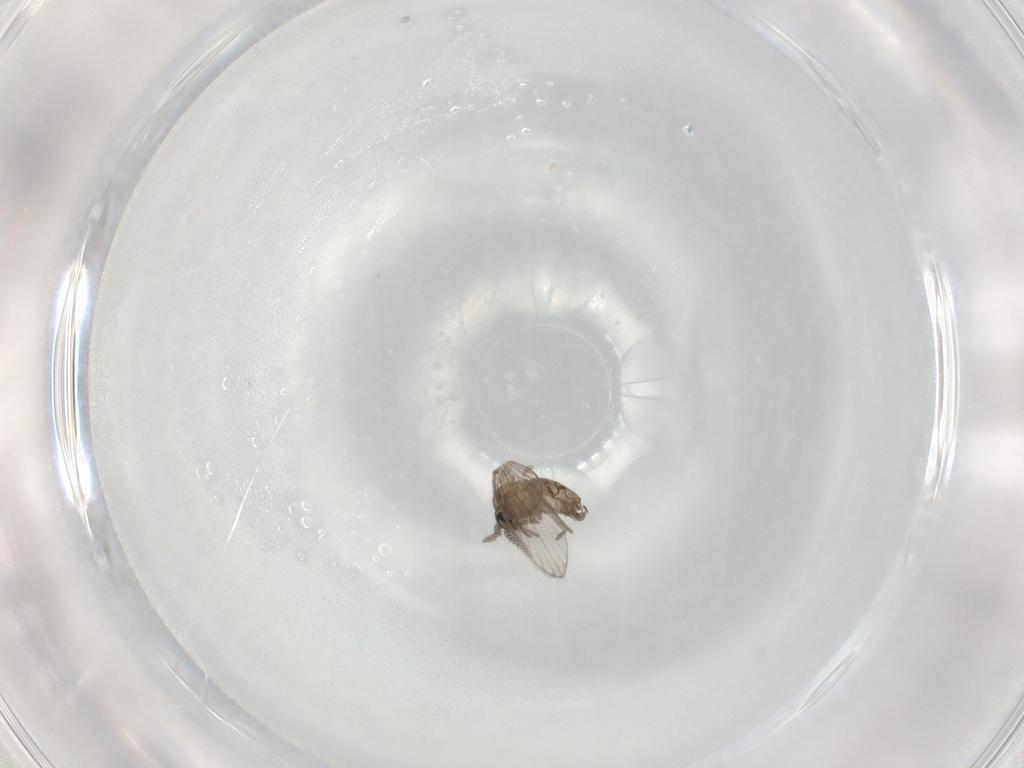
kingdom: Animalia
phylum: Arthropoda
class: Insecta
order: Diptera
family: Psychodidae
